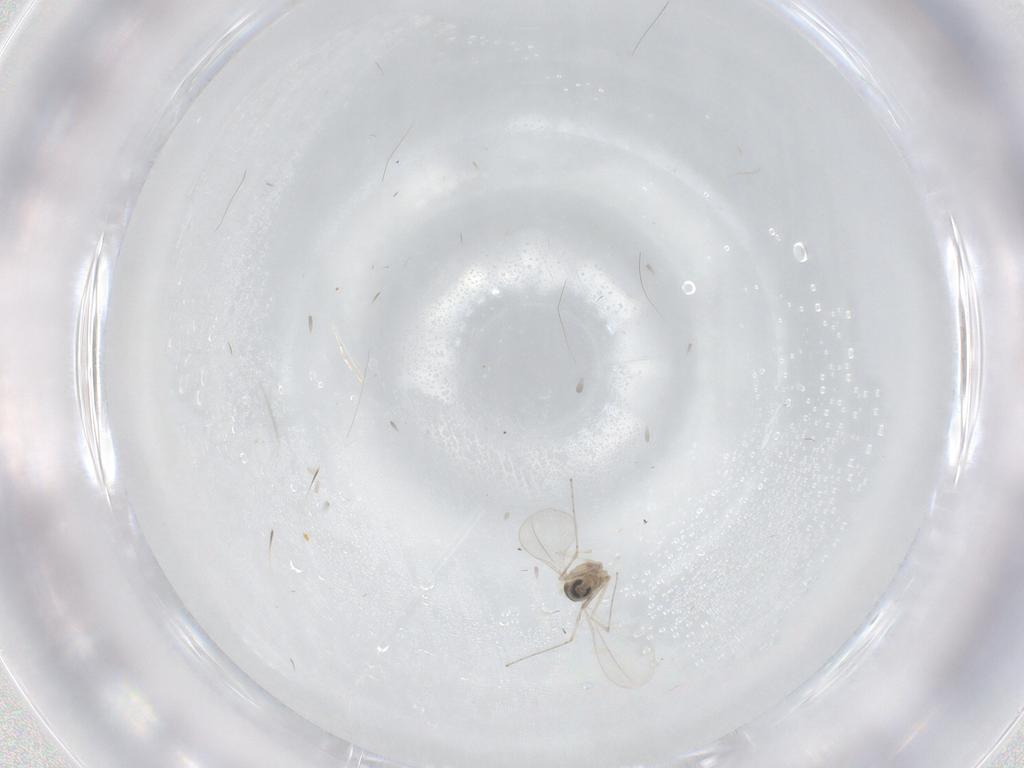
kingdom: Animalia
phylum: Arthropoda
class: Insecta
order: Diptera
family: Cecidomyiidae
